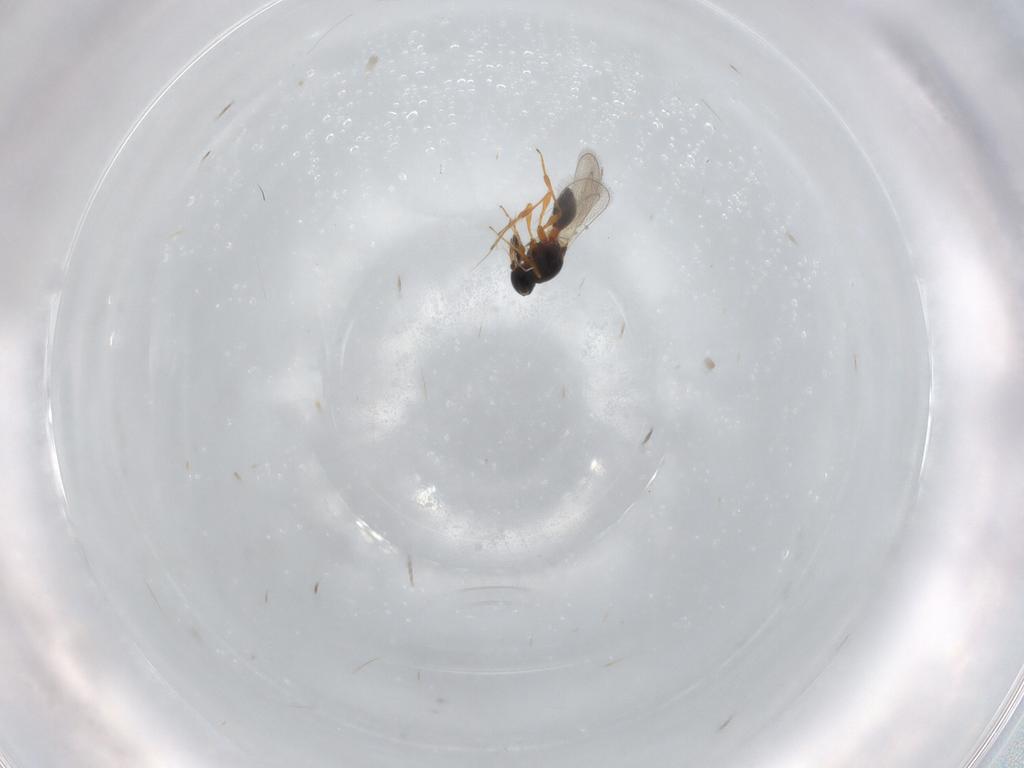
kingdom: Animalia
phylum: Arthropoda
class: Insecta
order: Hymenoptera
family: Platygastridae
